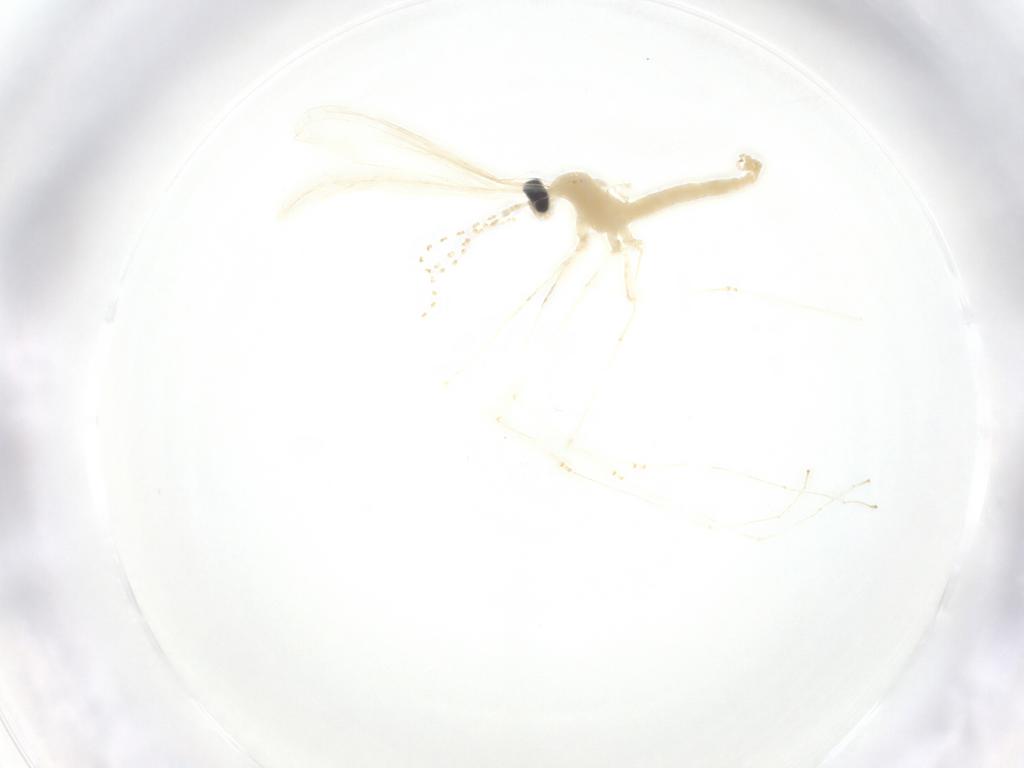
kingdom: Animalia
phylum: Arthropoda
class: Insecta
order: Diptera
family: Cecidomyiidae
